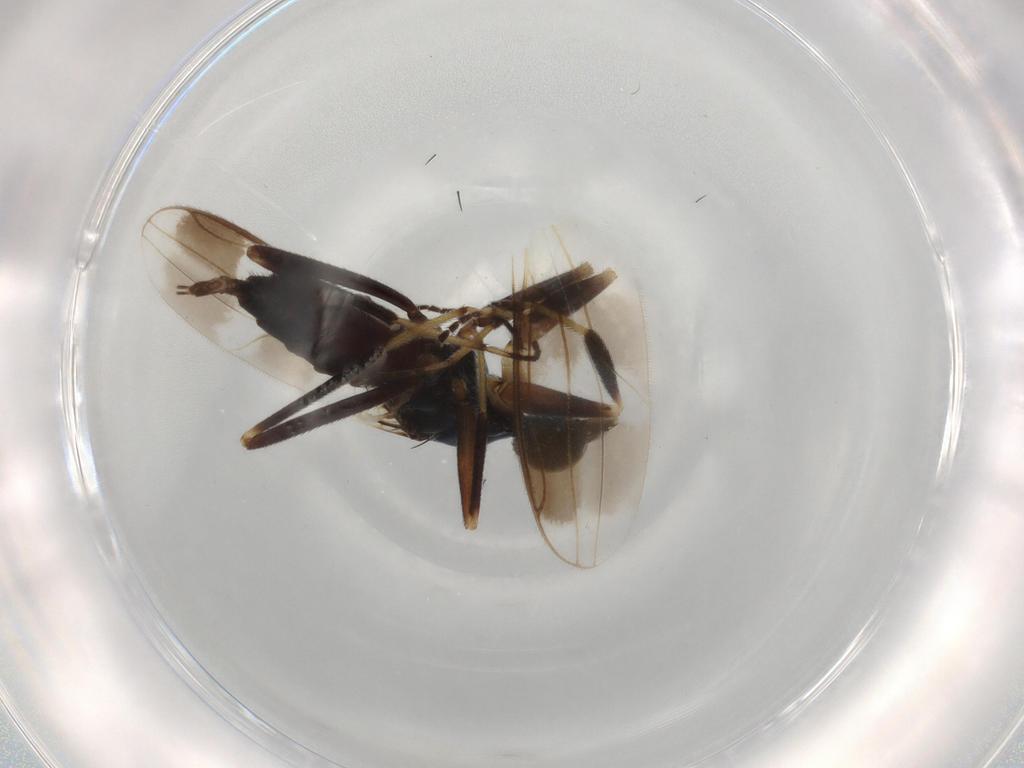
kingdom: Animalia
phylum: Arthropoda
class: Insecta
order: Diptera
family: Hybotidae
